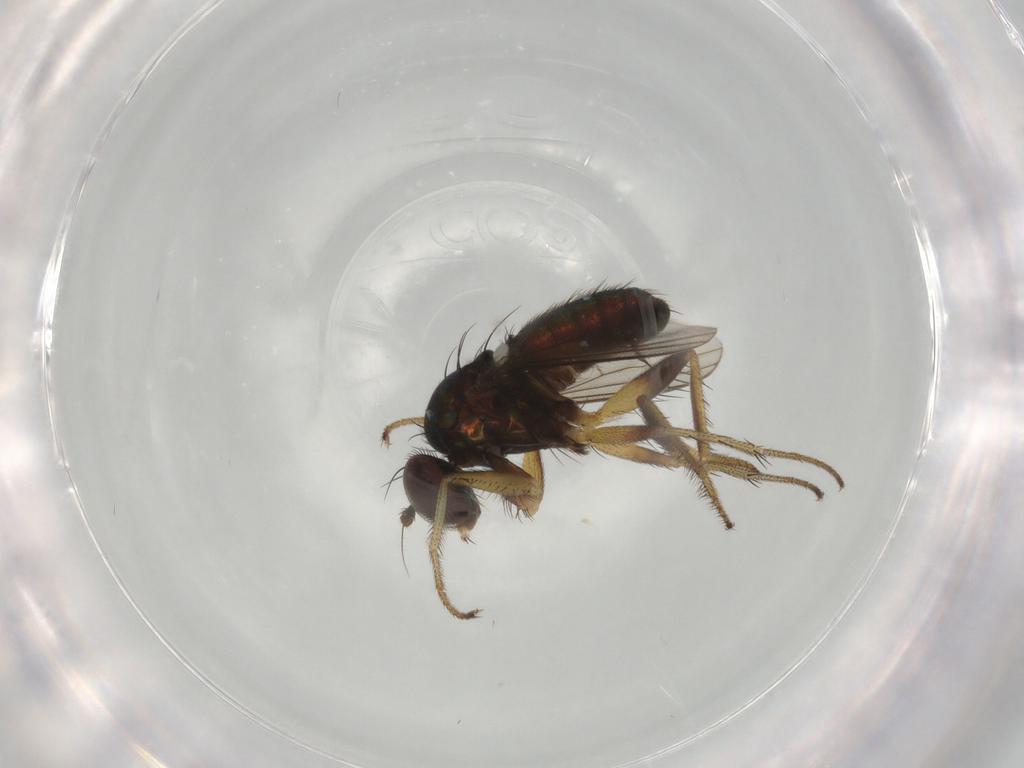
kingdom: Animalia
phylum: Arthropoda
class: Insecta
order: Diptera
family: Dolichopodidae
